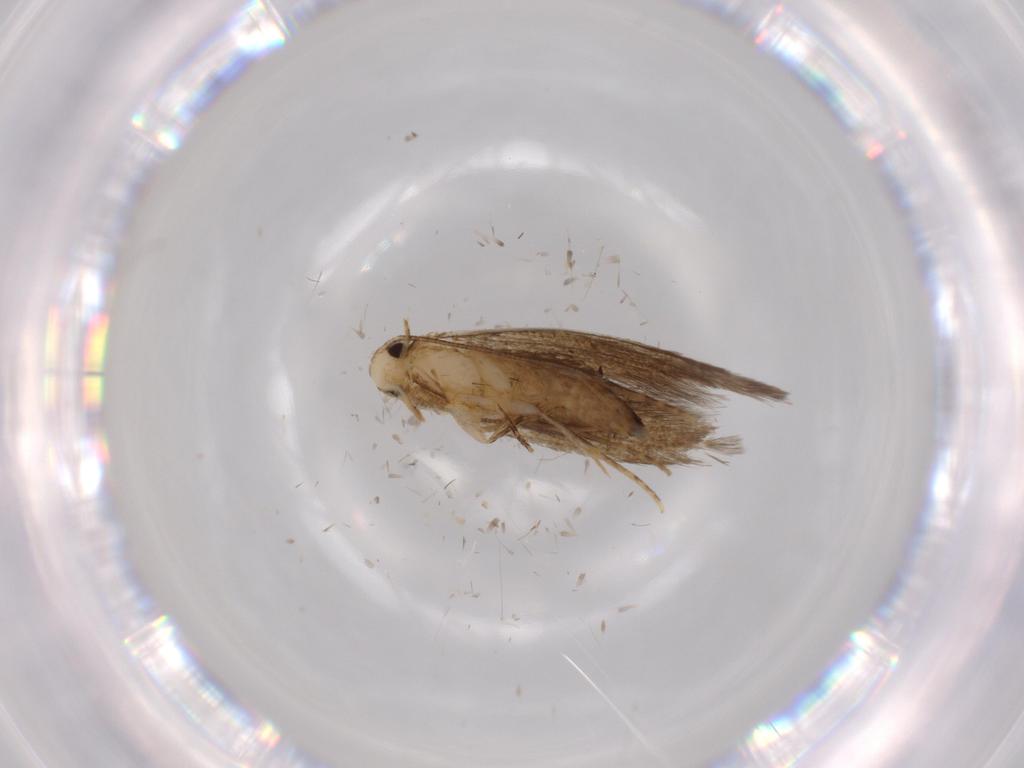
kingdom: Animalia
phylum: Arthropoda
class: Insecta
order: Lepidoptera
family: Tineidae
